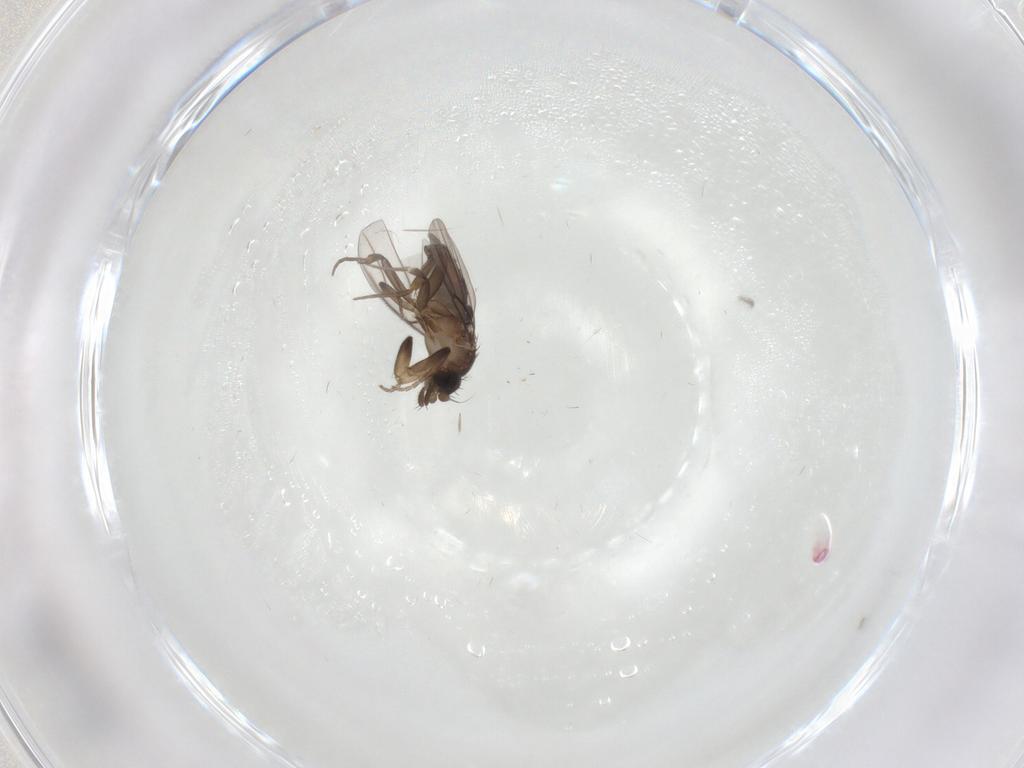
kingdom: Animalia
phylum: Arthropoda
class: Insecta
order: Diptera
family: Phoridae
